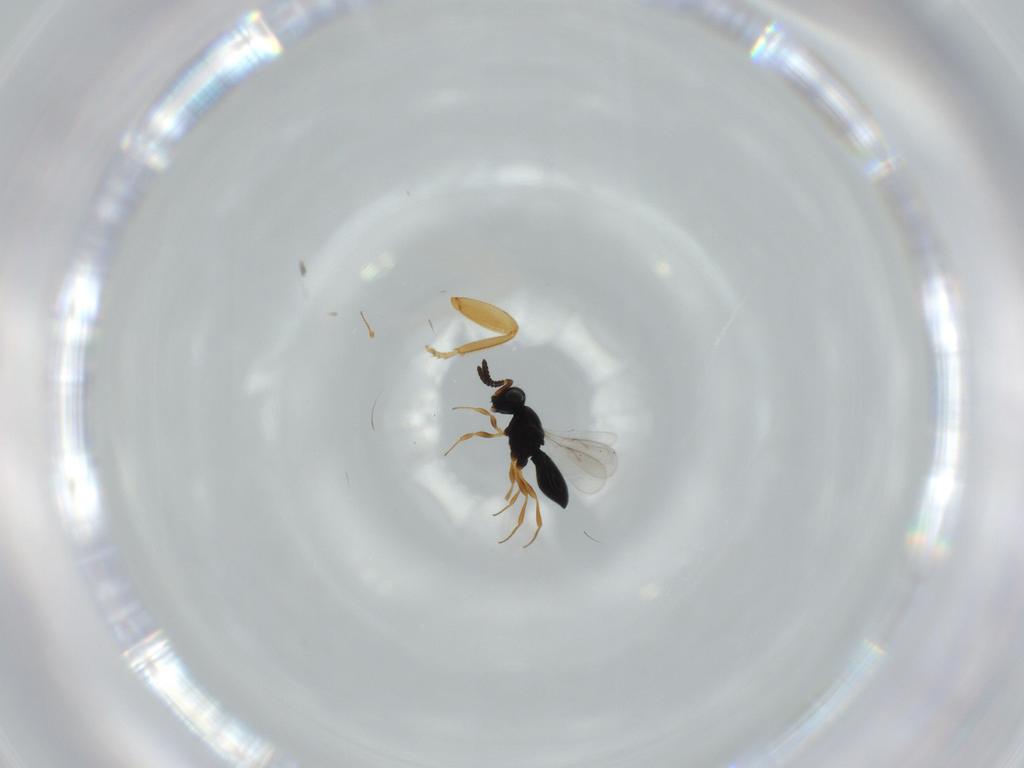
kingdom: Animalia
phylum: Arthropoda
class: Insecta
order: Hymenoptera
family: Scelionidae
